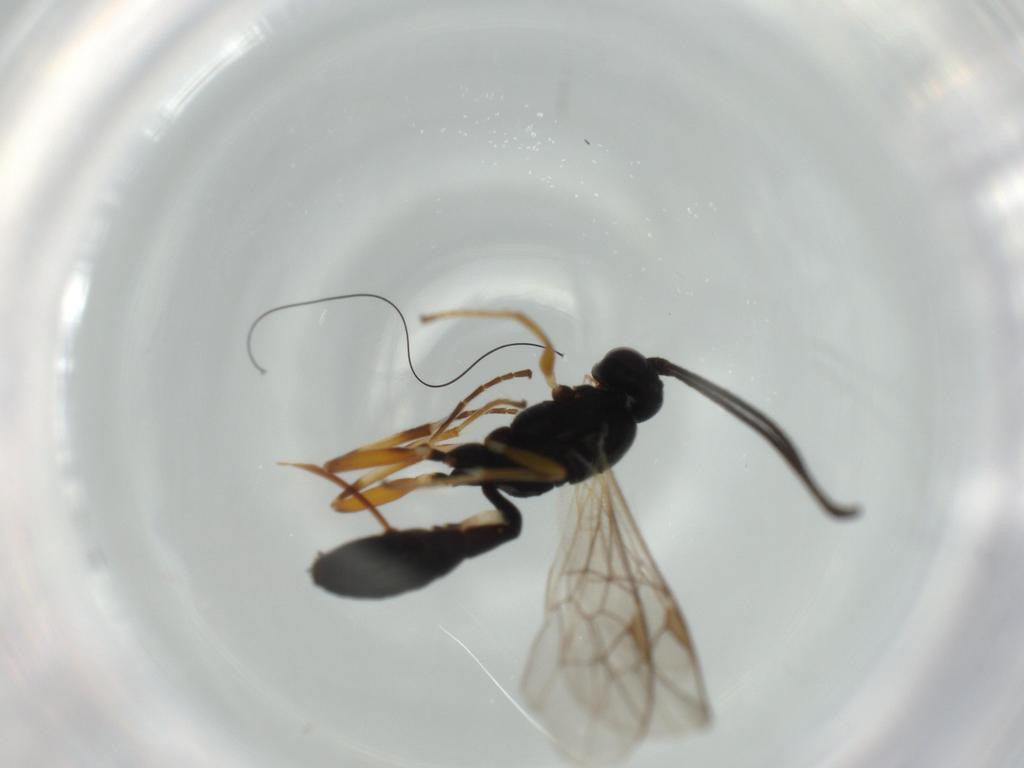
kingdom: Animalia
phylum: Arthropoda
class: Insecta
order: Hymenoptera
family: Ichneumonidae
